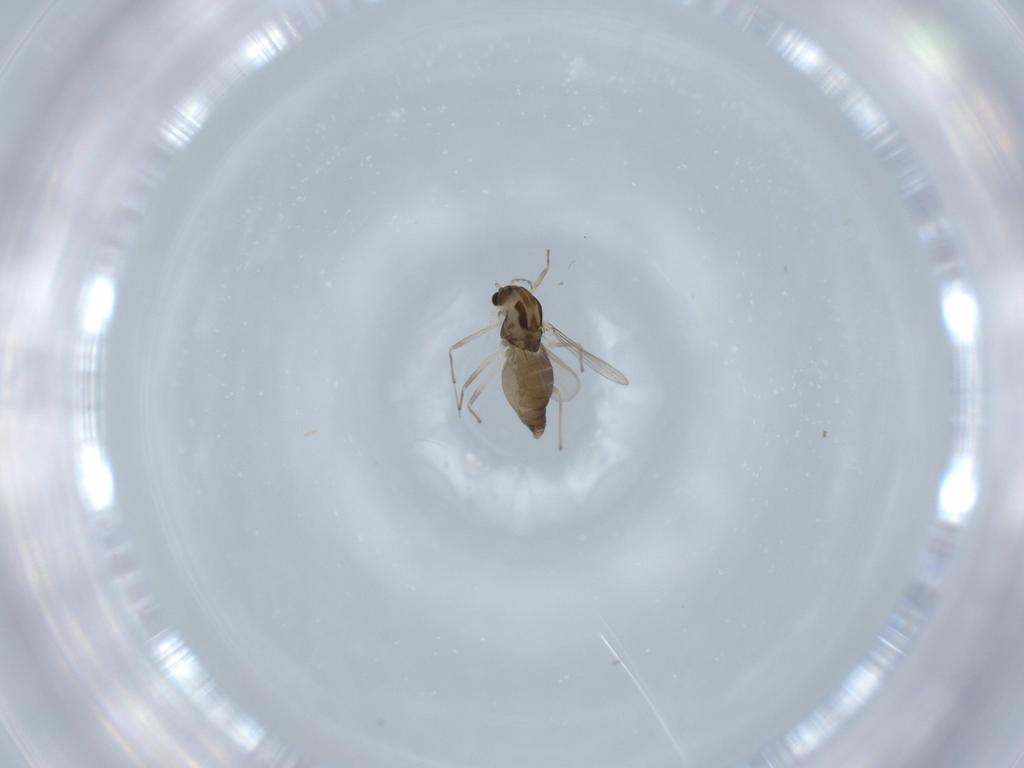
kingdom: Animalia
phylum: Arthropoda
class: Insecta
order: Diptera
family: Chironomidae
